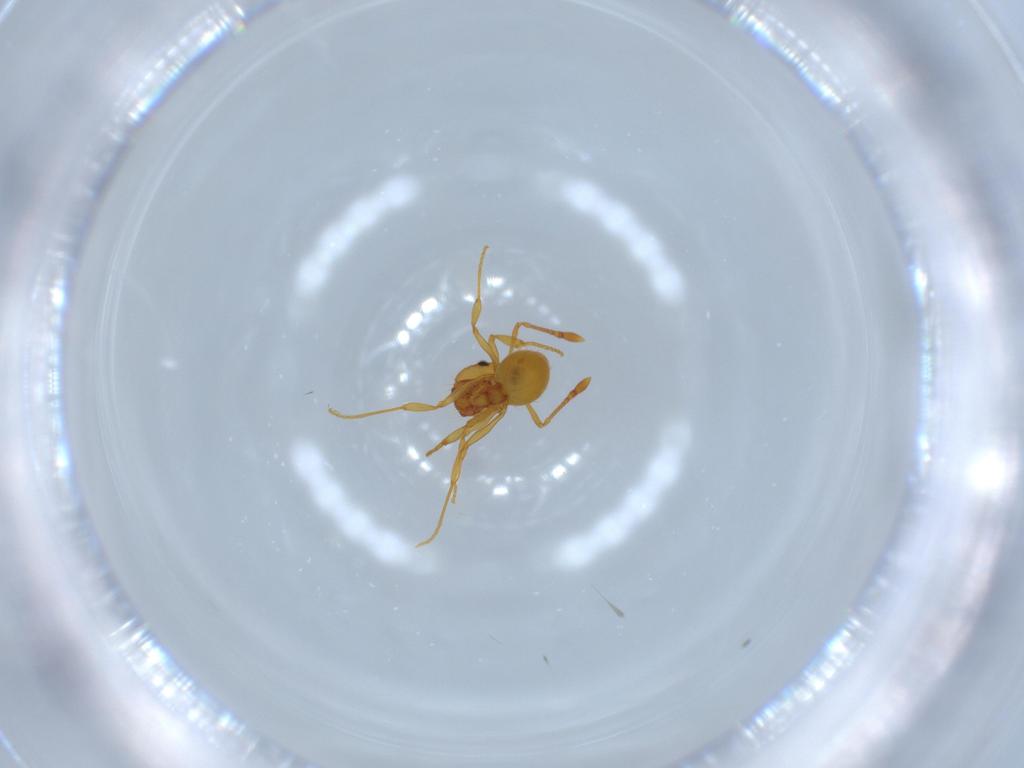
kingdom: Animalia
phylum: Arthropoda
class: Insecta
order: Hymenoptera
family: Formicidae
